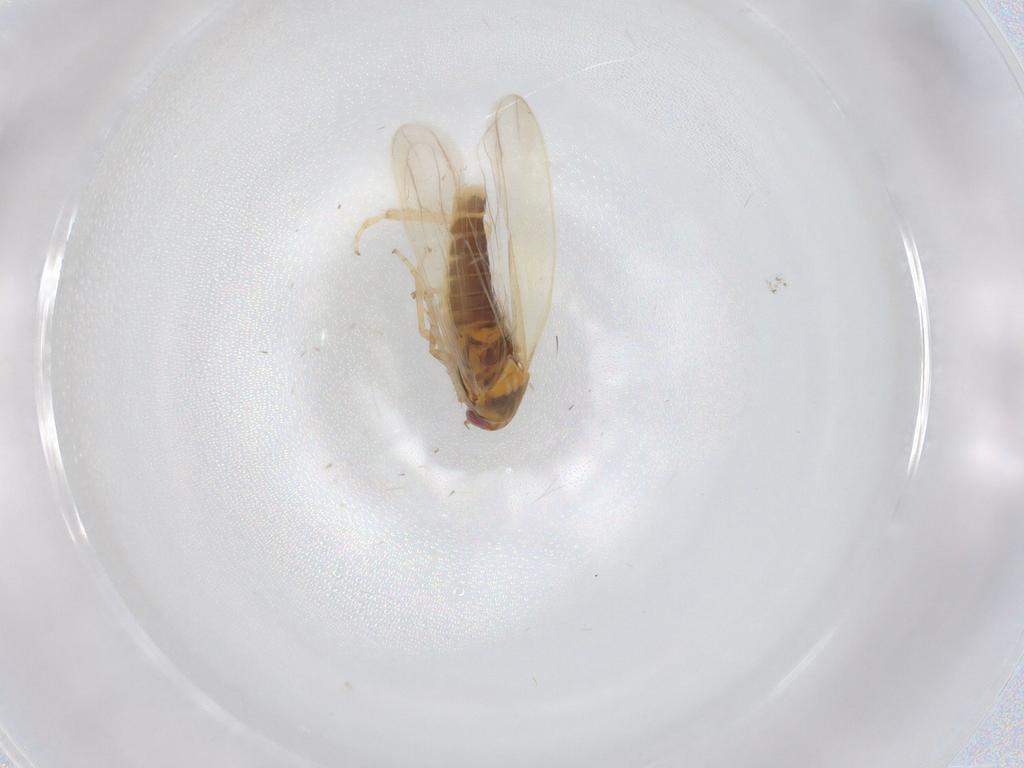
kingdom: Animalia
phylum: Arthropoda
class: Insecta
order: Hemiptera
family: Cicadellidae
